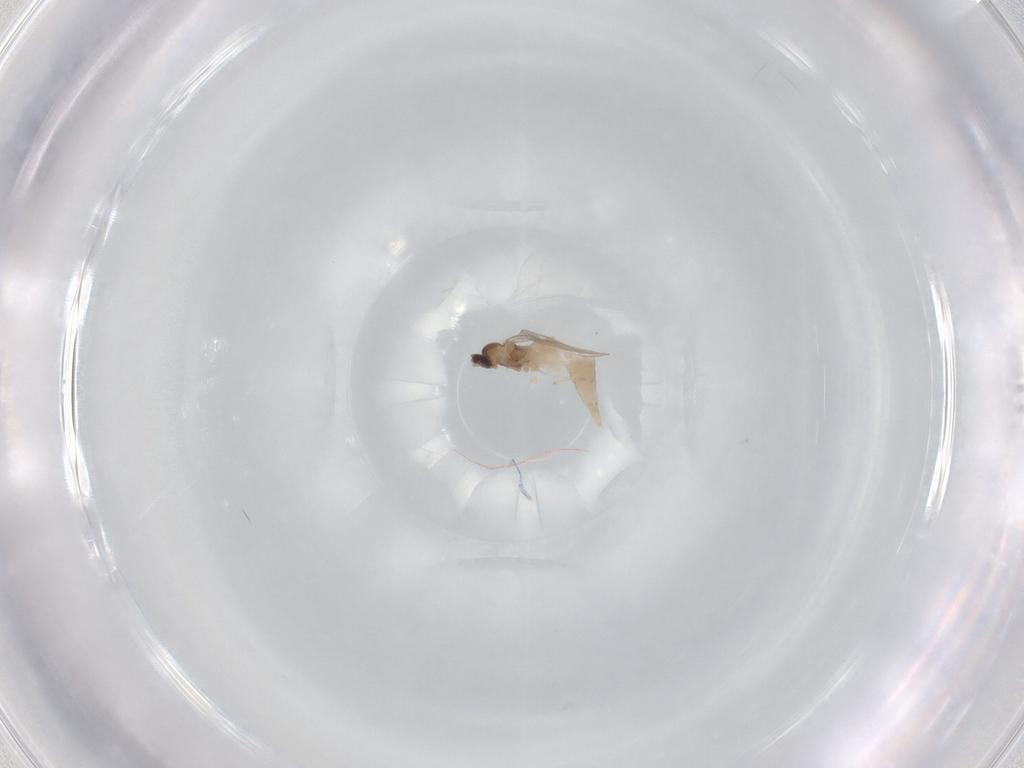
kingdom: Animalia
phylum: Arthropoda
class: Insecta
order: Diptera
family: Cecidomyiidae
